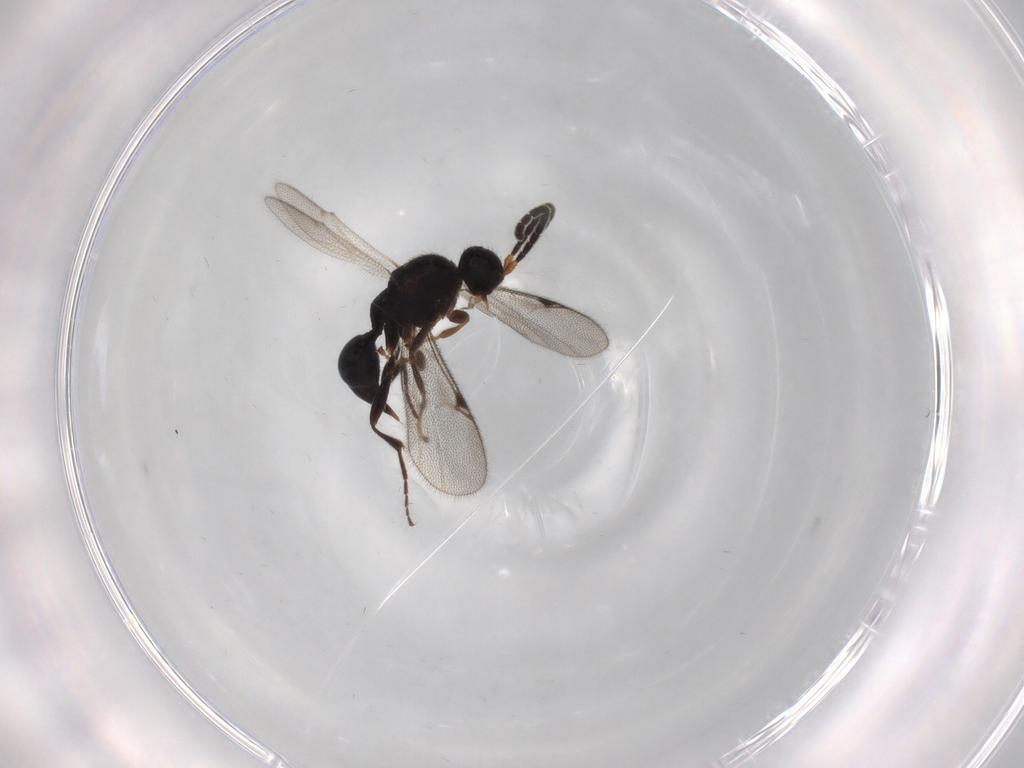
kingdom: Animalia
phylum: Arthropoda
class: Insecta
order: Hymenoptera
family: Proctotrupidae
